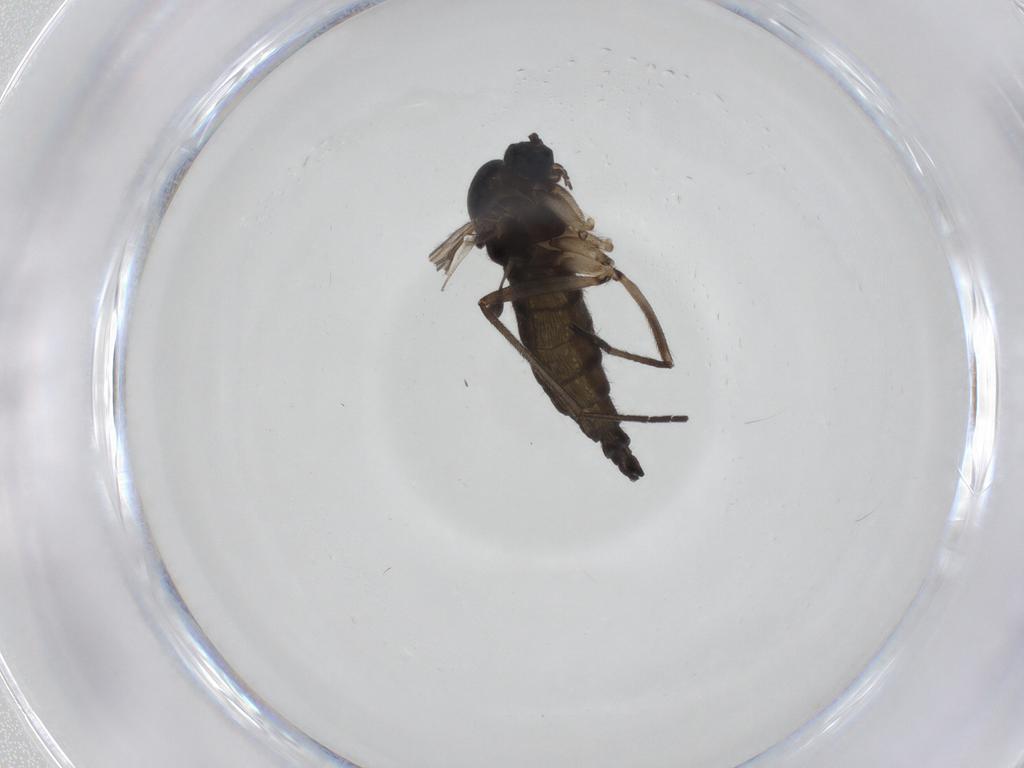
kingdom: Animalia
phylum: Arthropoda
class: Insecta
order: Diptera
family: Sciaridae
